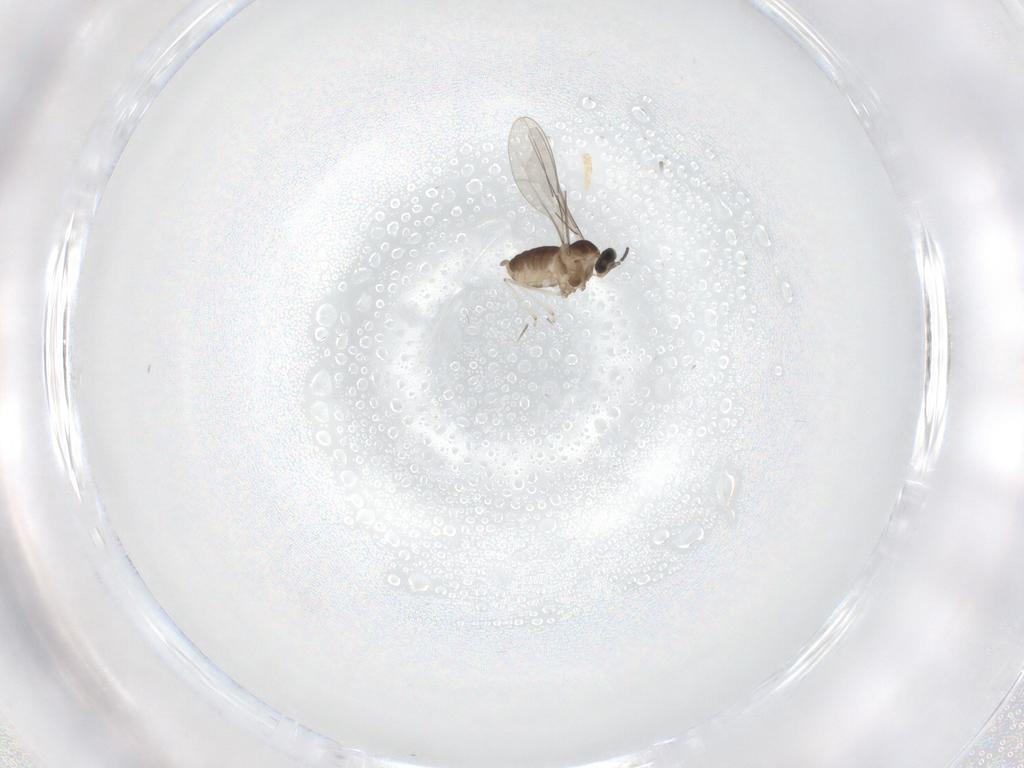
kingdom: Animalia
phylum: Arthropoda
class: Insecta
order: Diptera
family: Cecidomyiidae
